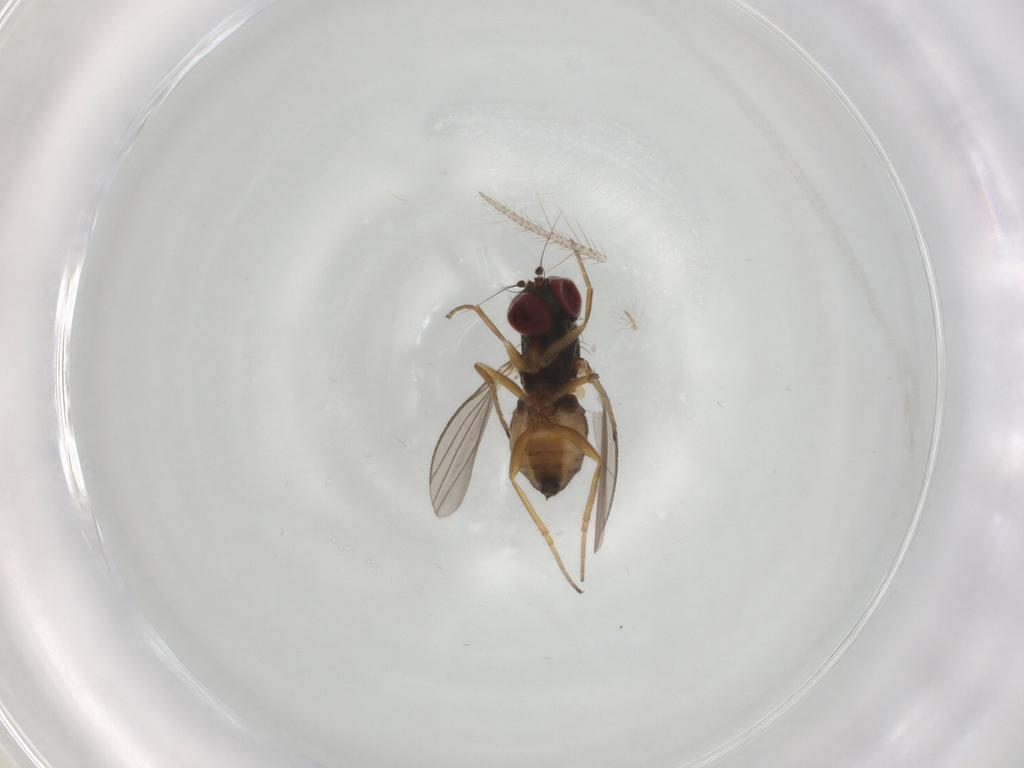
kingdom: Animalia
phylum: Arthropoda
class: Insecta
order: Diptera
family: Dolichopodidae
